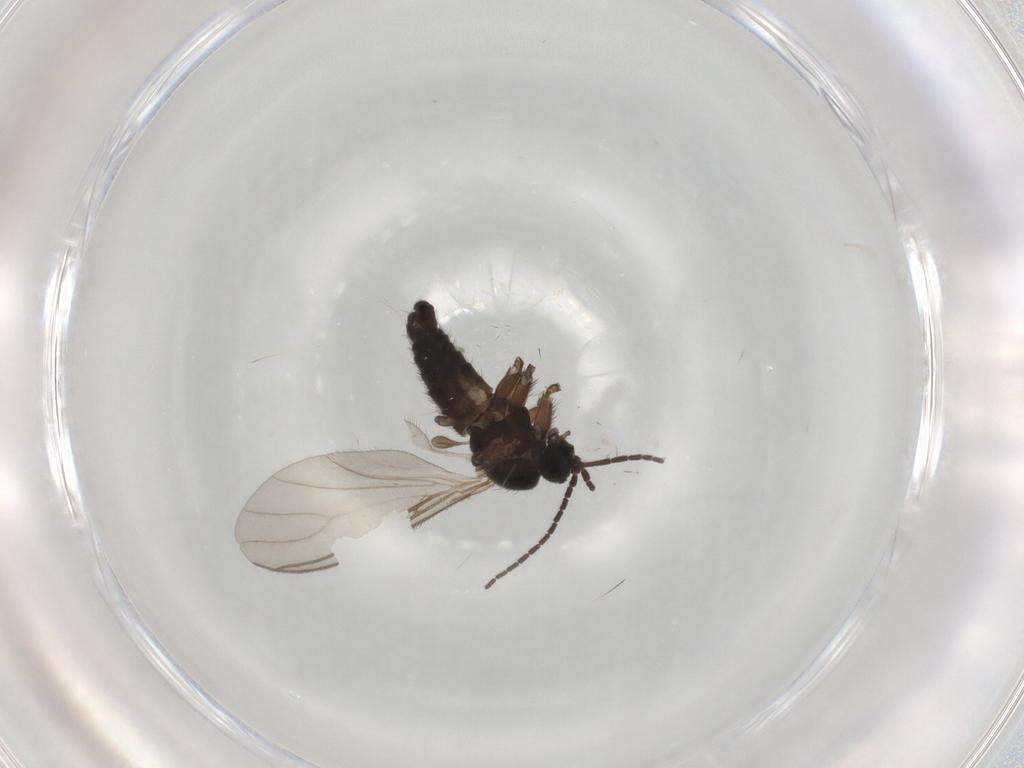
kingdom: Animalia
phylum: Arthropoda
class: Insecta
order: Diptera
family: Sciaridae
